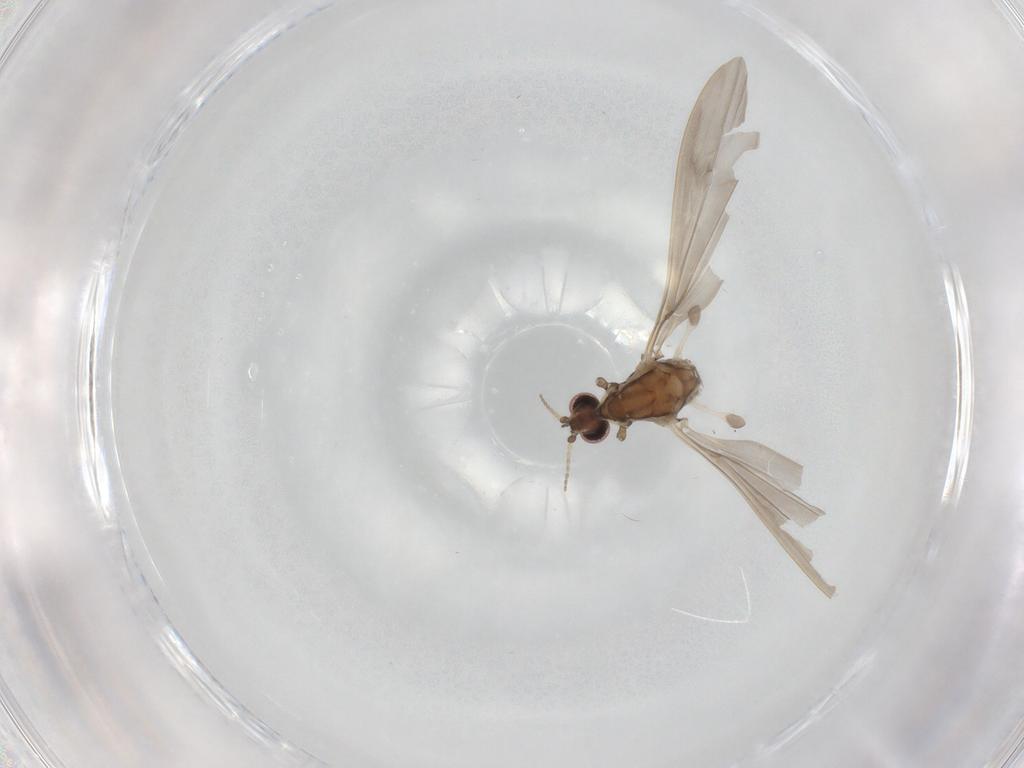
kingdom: Animalia
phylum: Arthropoda
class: Insecta
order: Diptera
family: Limoniidae
